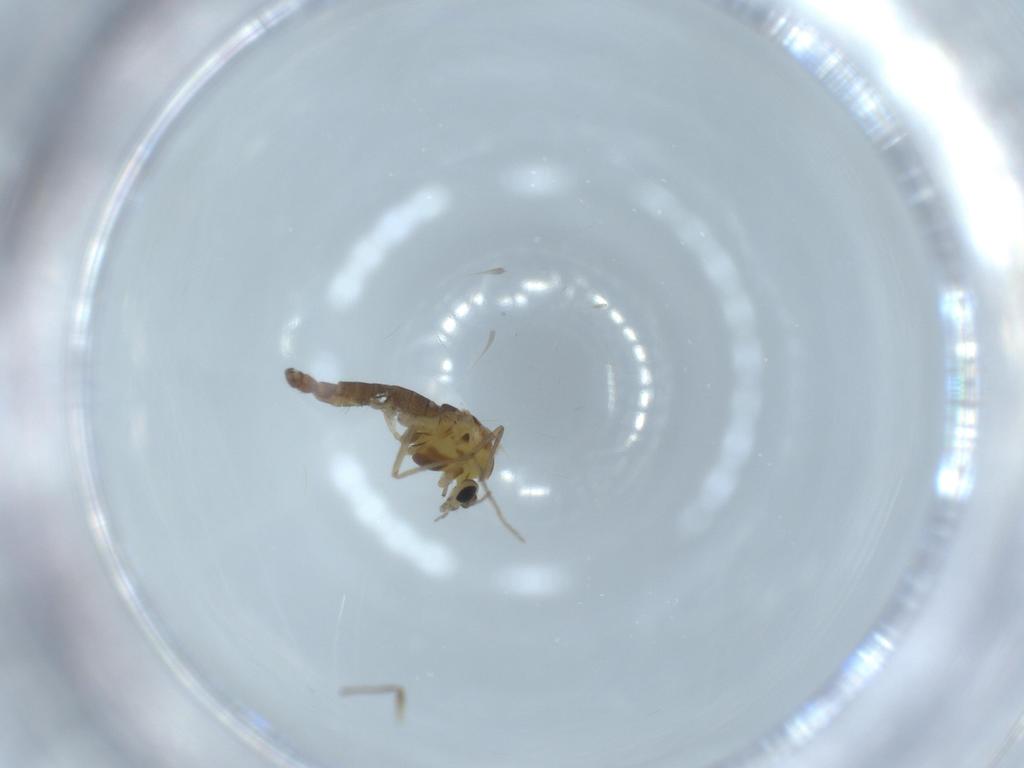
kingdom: Animalia
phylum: Arthropoda
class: Insecta
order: Diptera
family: Chironomidae
